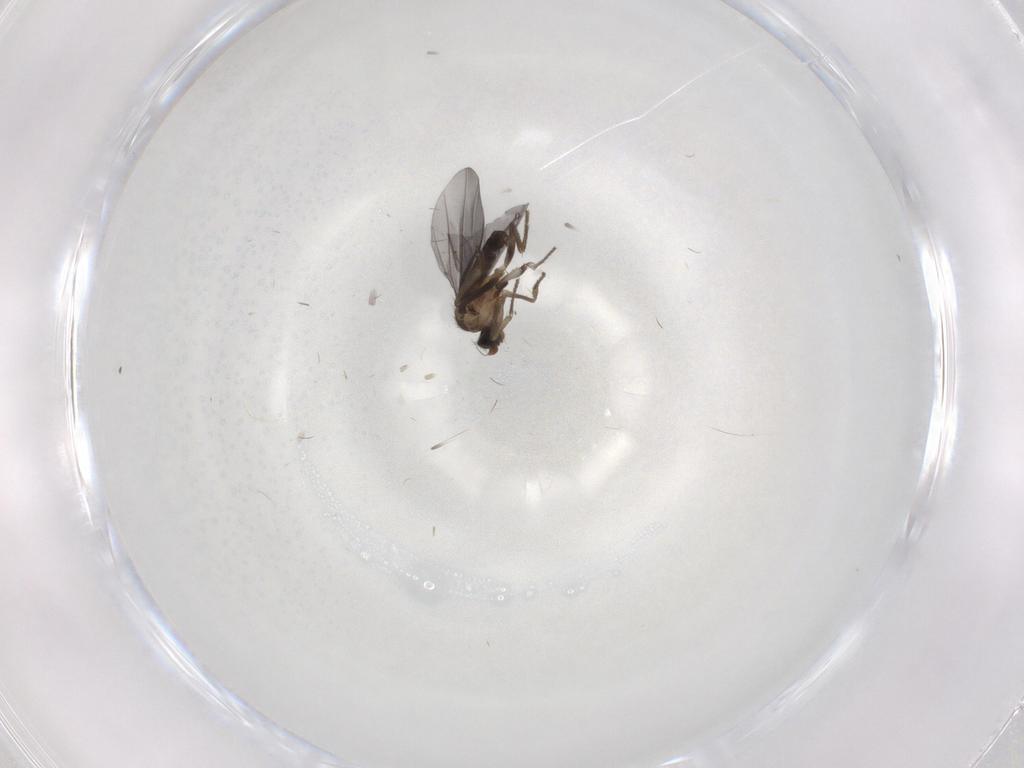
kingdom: Animalia
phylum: Arthropoda
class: Insecta
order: Diptera
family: Phoridae
